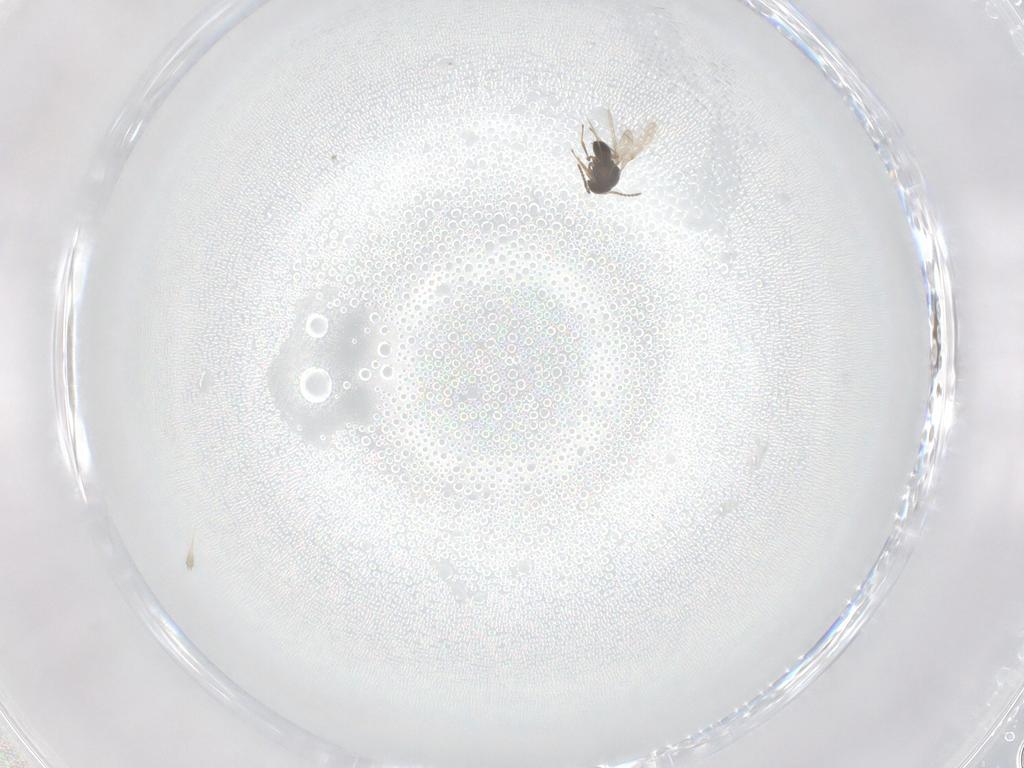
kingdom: Animalia
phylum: Arthropoda
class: Insecta
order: Hymenoptera
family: Scelionidae
